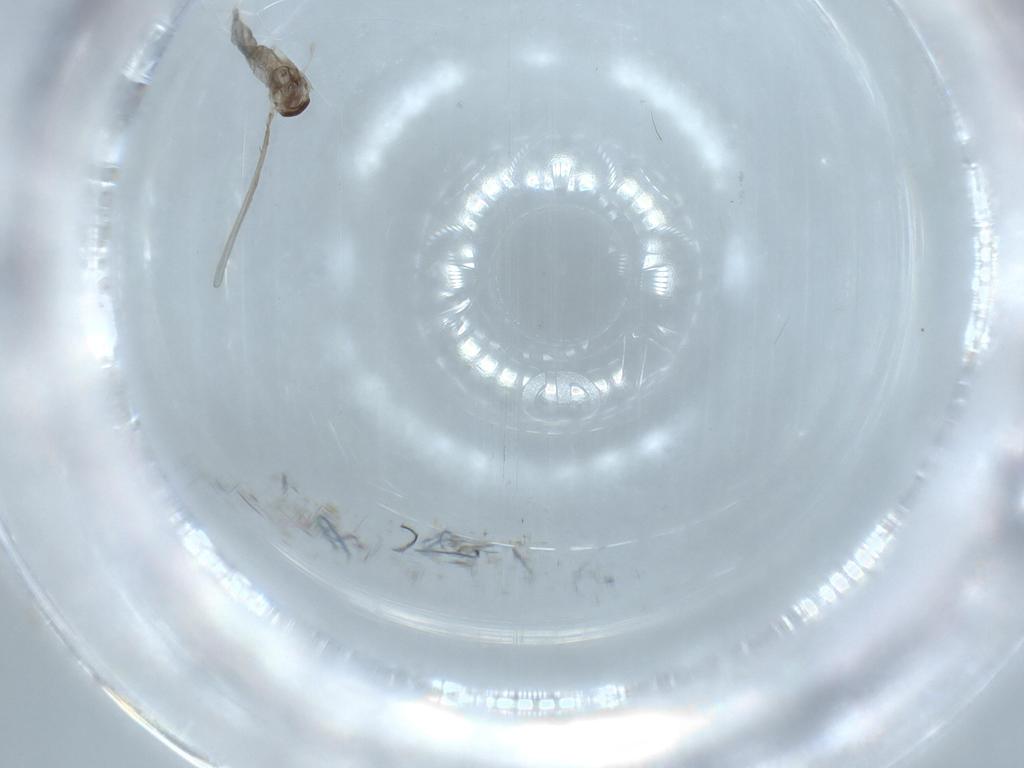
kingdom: Animalia
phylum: Arthropoda
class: Insecta
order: Diptera
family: Cecidomyiidae
